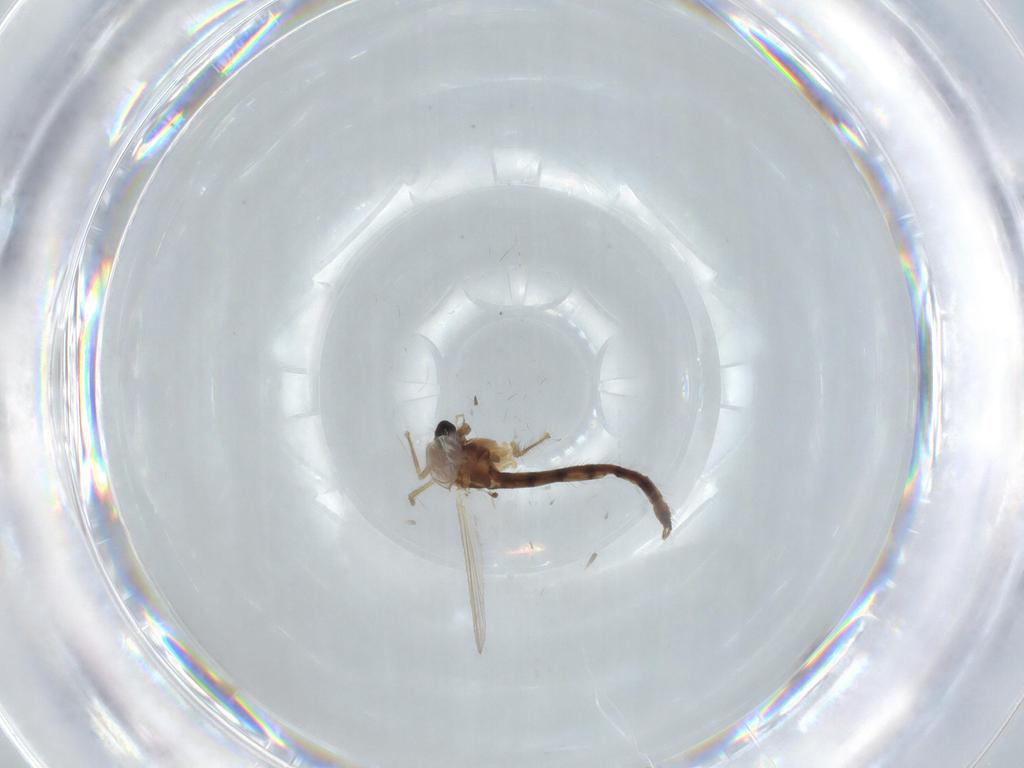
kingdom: Animalia
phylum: Arthropoda
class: Insecta
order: Diptera
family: Chironomidae
